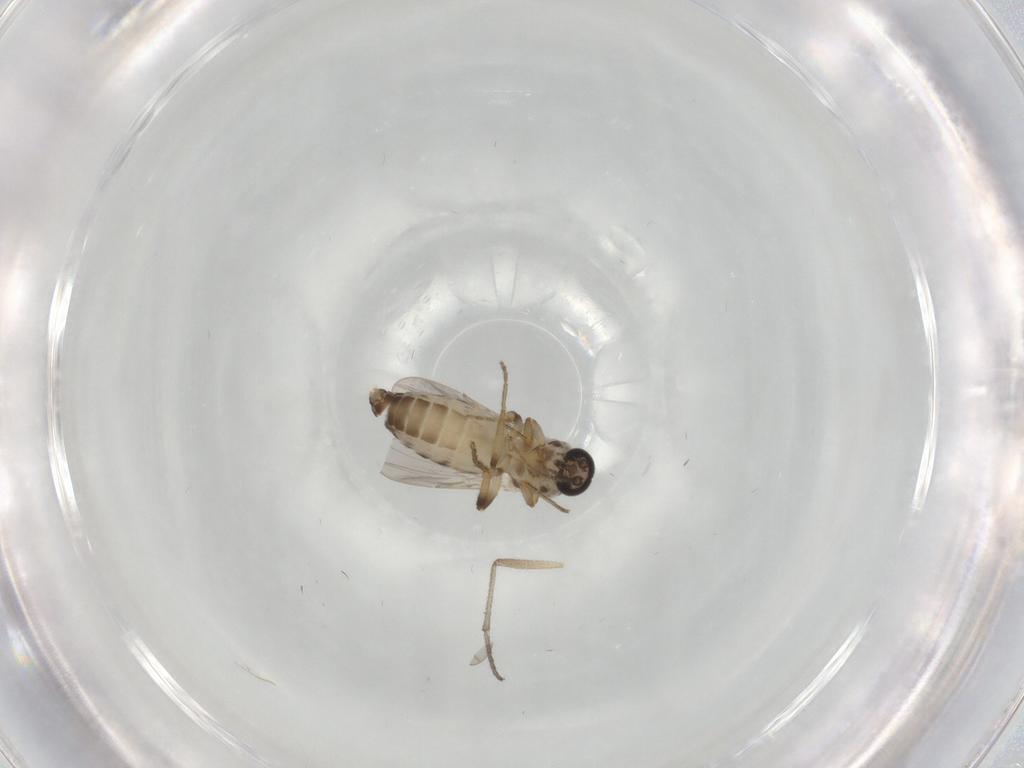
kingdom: Animalia
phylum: Arthropoda
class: Insecta
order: Diptera
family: Ceratopogonidae
